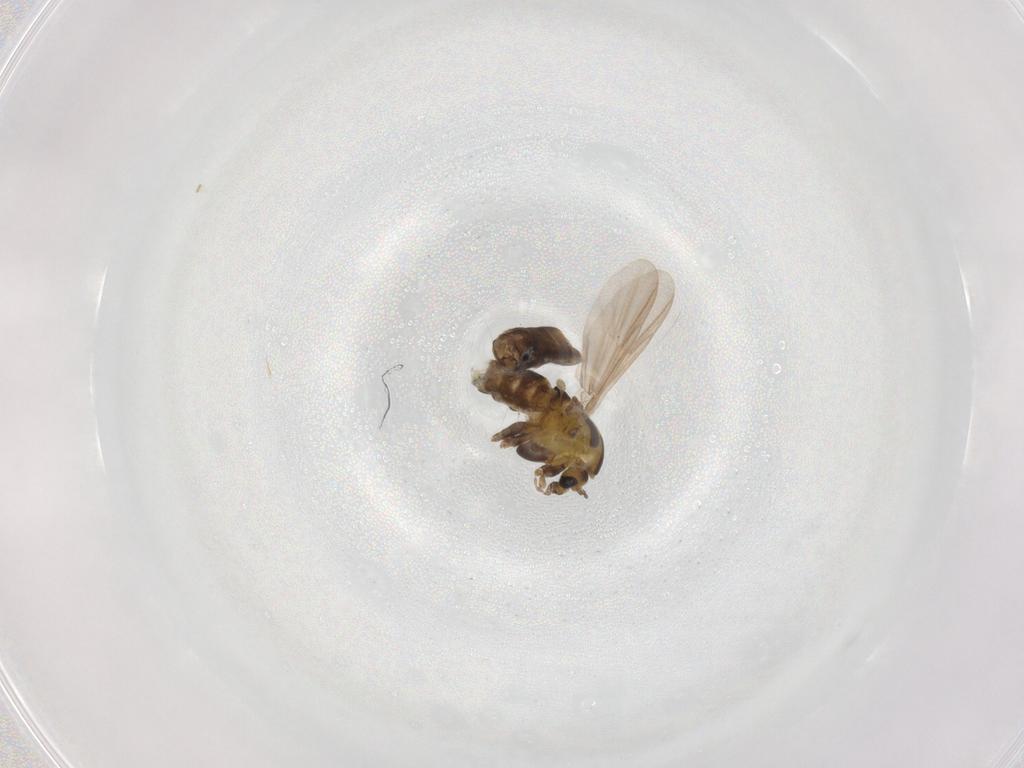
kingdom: Animalia
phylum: Arthropoda
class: Insecta
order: Diptera
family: Chironomidae
